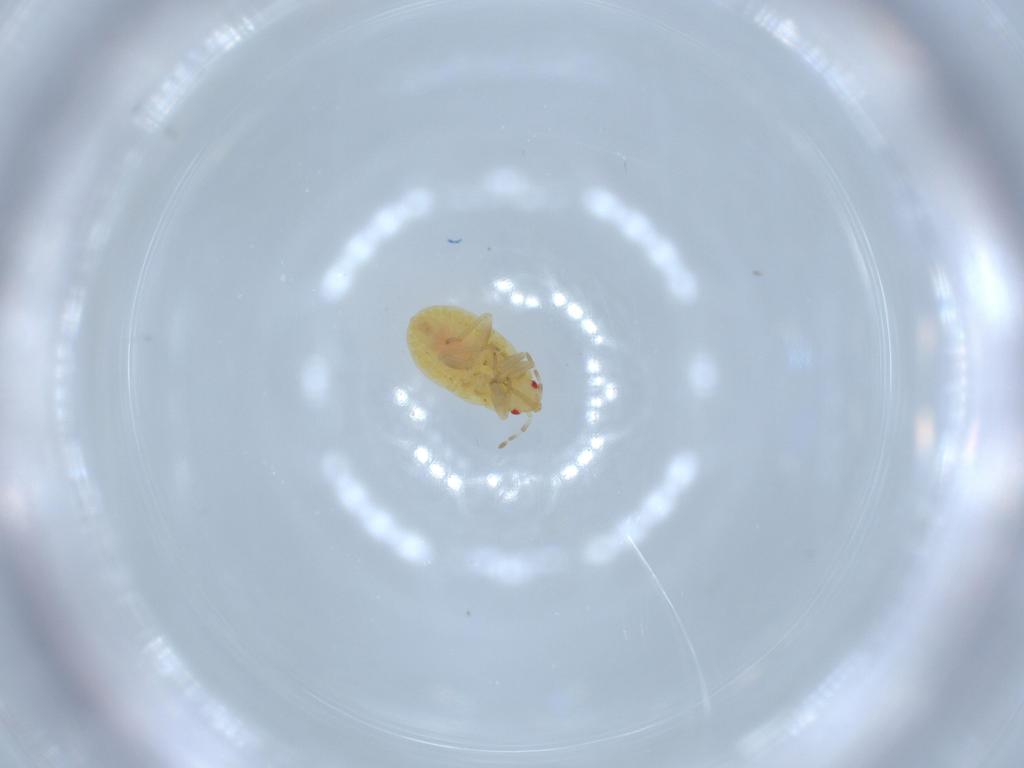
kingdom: Animalia
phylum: Arthropoda
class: Insecta
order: Hemiptera
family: Anthocoridae
